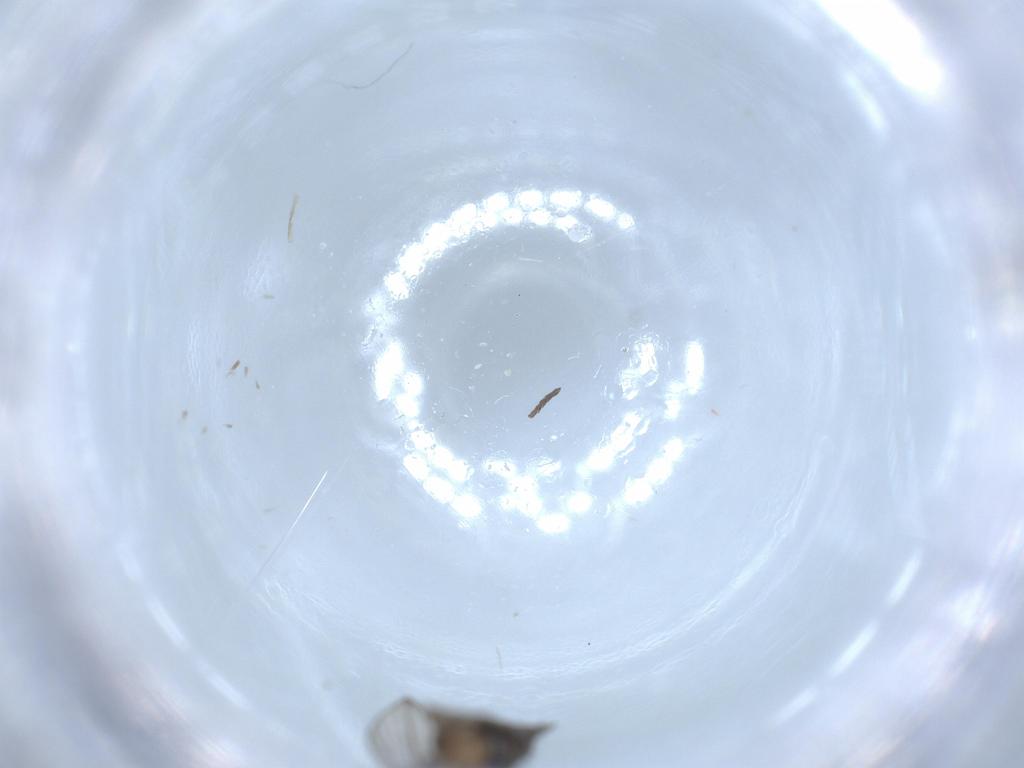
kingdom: Animalia
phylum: Arthropoda
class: Insecta
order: Diptera
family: Psychodidae
